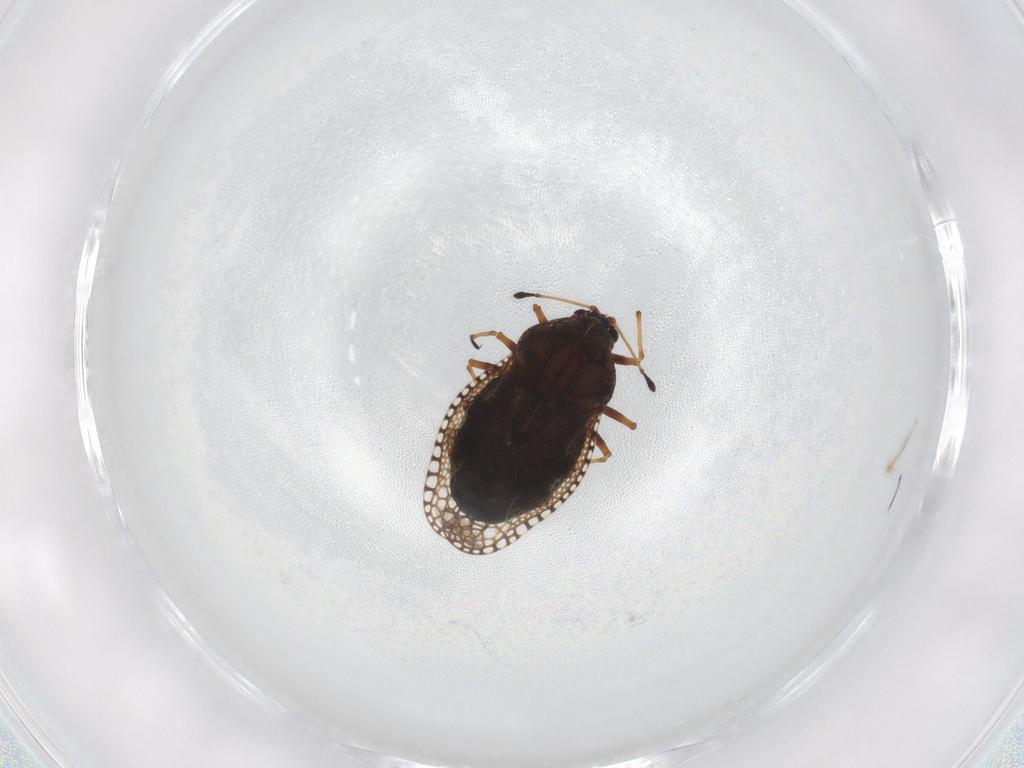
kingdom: Animalia
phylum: Arthropoda
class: Insecta
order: Hemiptera
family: Tingidae
